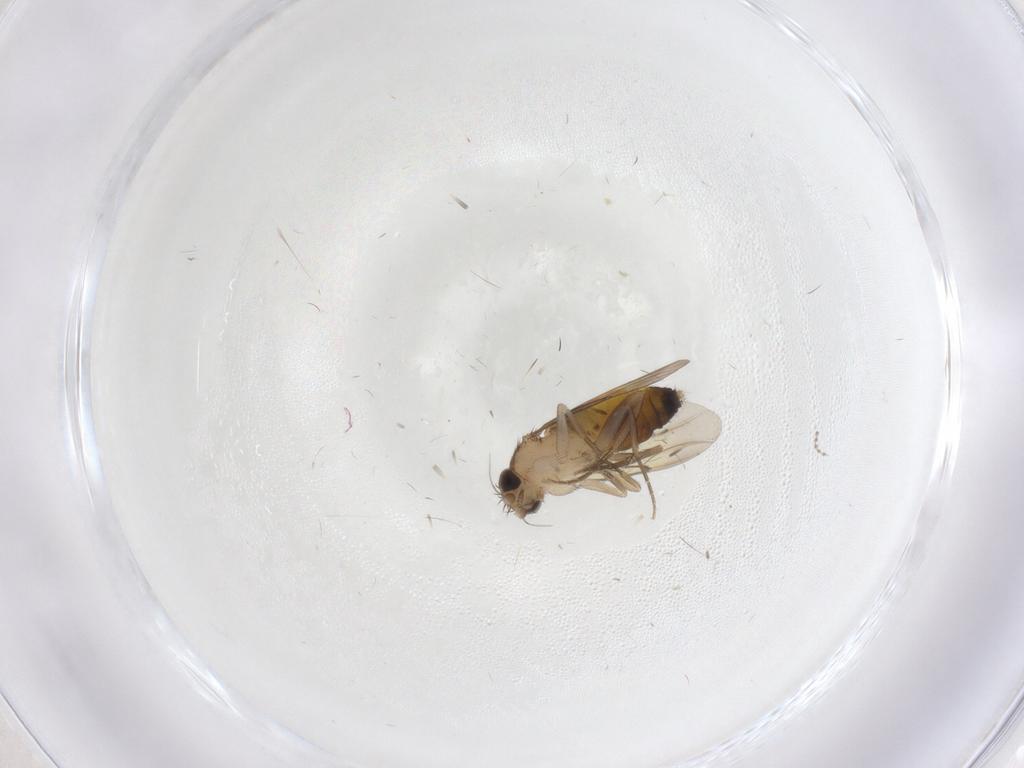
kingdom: Animalia
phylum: Arthropoda
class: Insecta
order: Diptera
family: Phoridae
